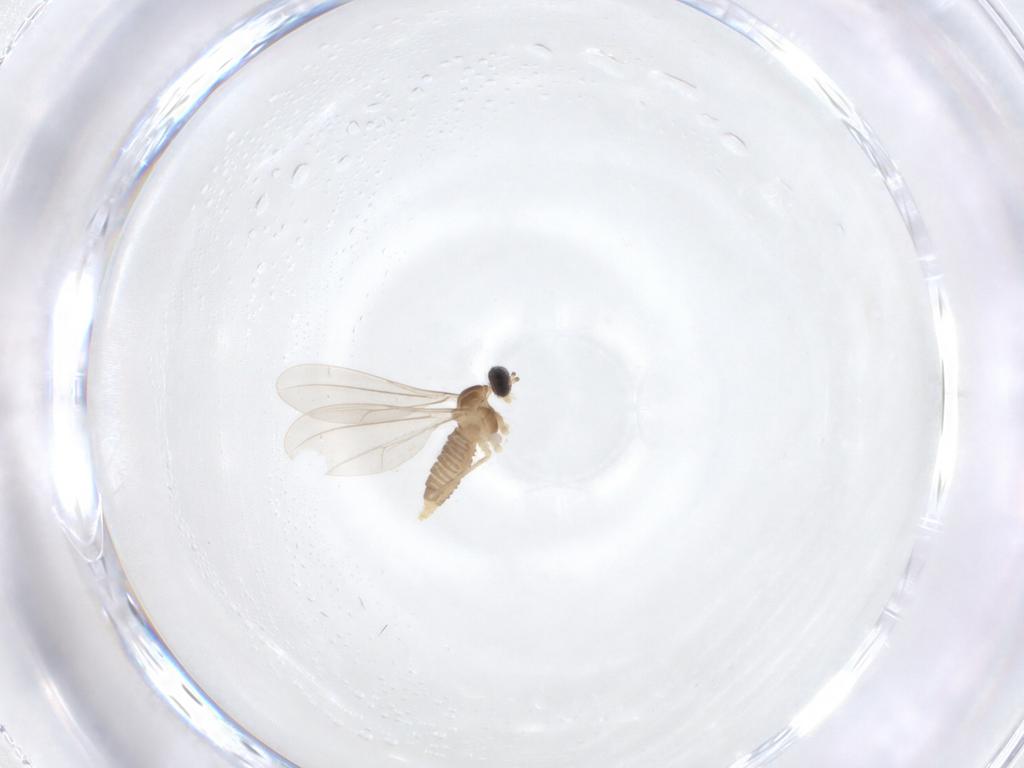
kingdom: Animalia
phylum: Arthropoda
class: Insecta
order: Diptera
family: Cecidomyiidae
